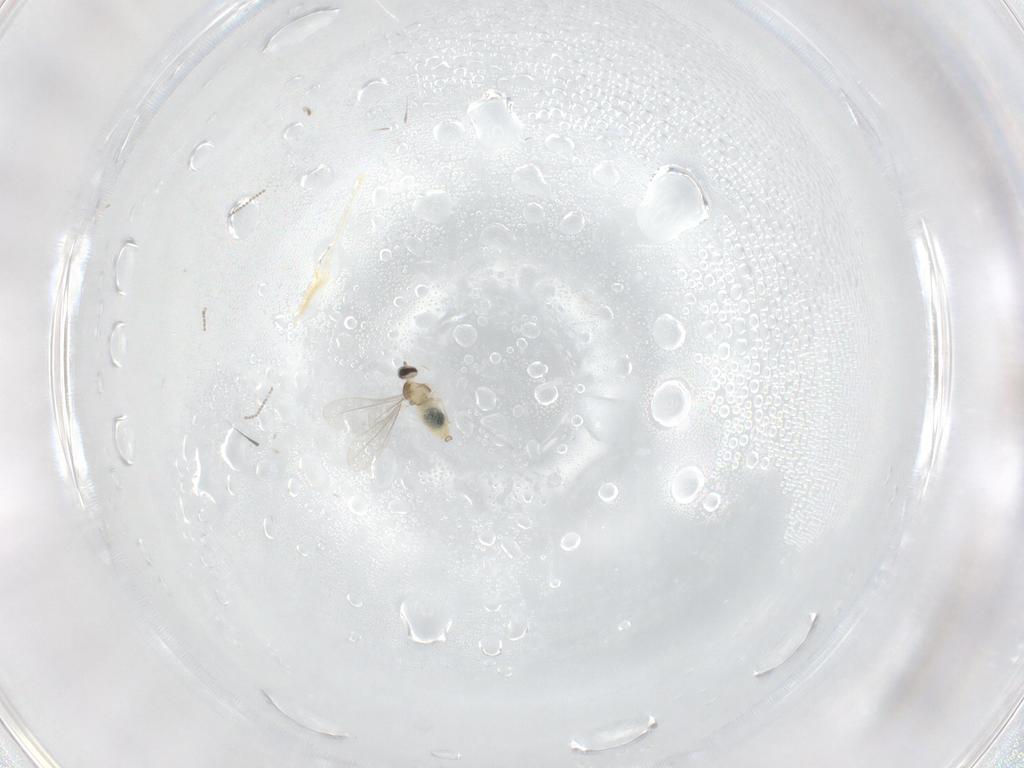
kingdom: Animalia
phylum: Arthropoda
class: Insecta
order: Diptera
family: Cecidomyiidae
